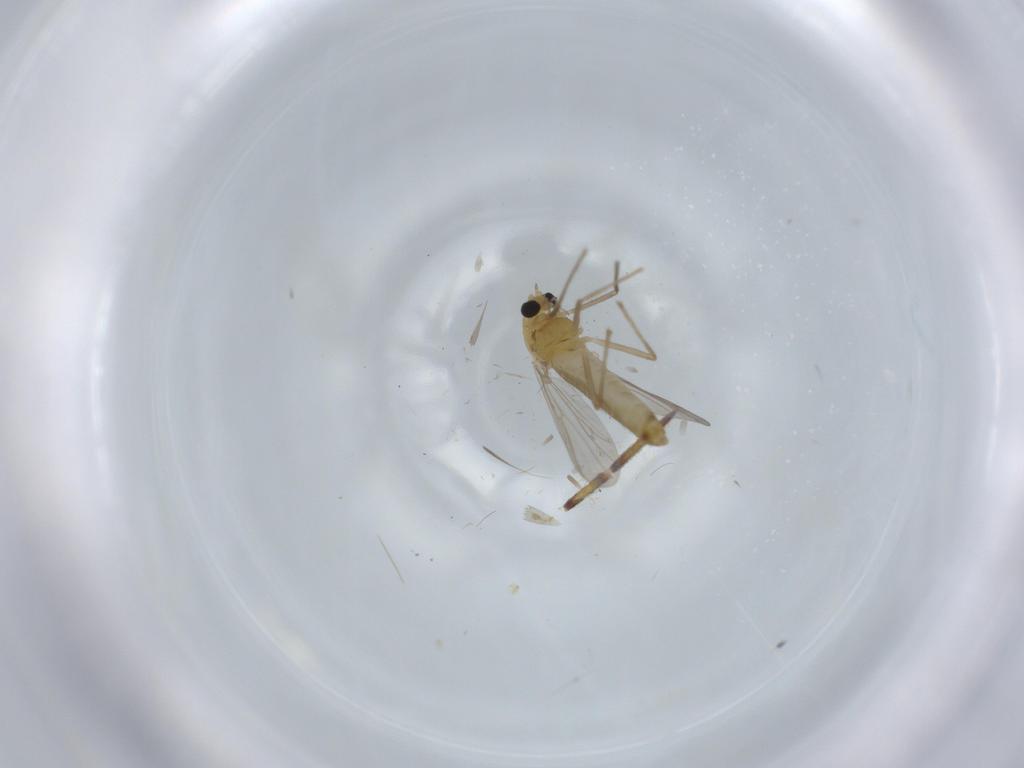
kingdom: Animalia
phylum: Arthropoda
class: Insecta
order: Diptera
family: Chironomidae
